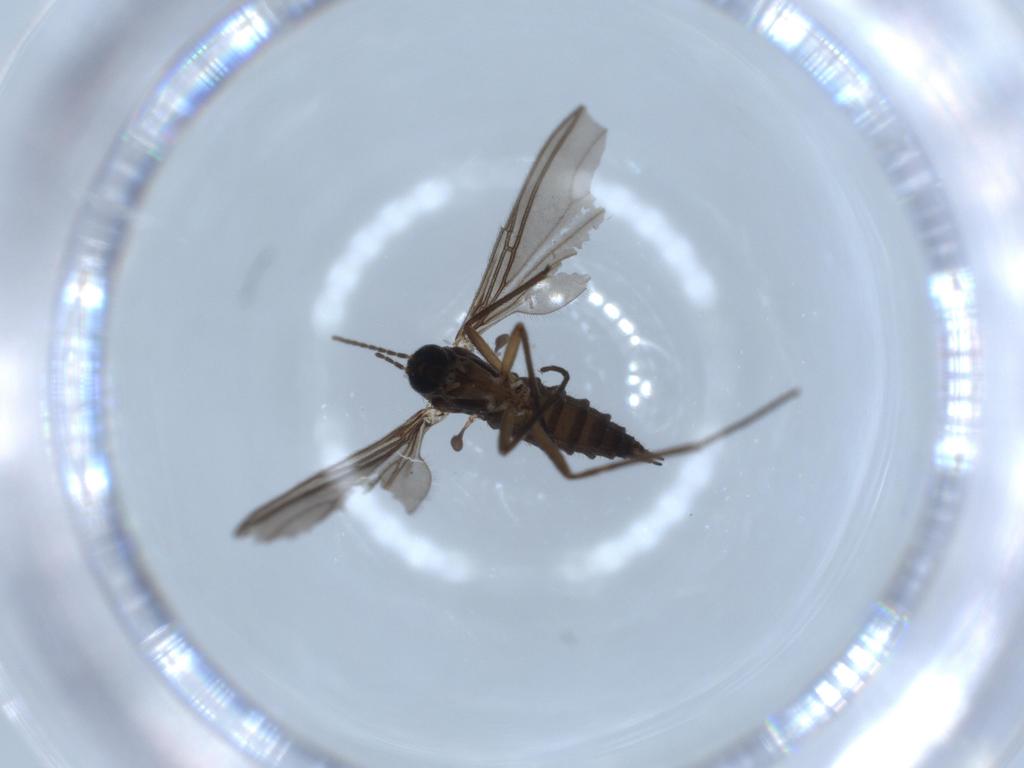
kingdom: Animalia
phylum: Arthropoda
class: Insecta
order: Diptera
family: Sciaridae
